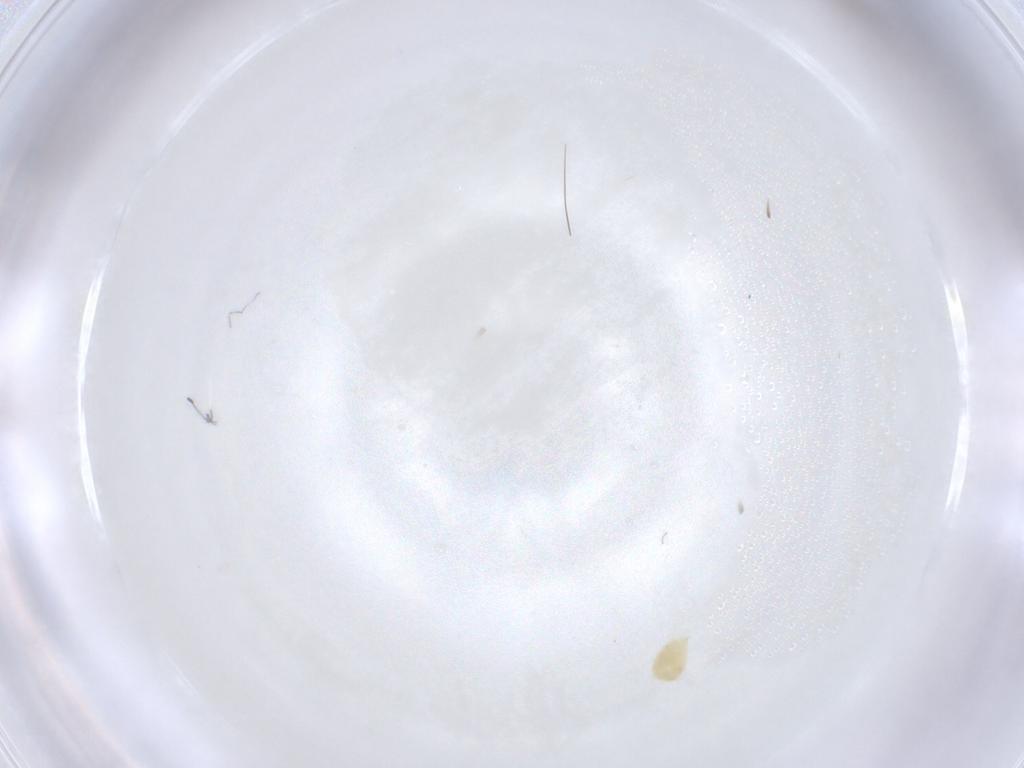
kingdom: Animalia
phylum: Arthropoda
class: Arachnida
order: Trombidiformes
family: Tetranychidae
